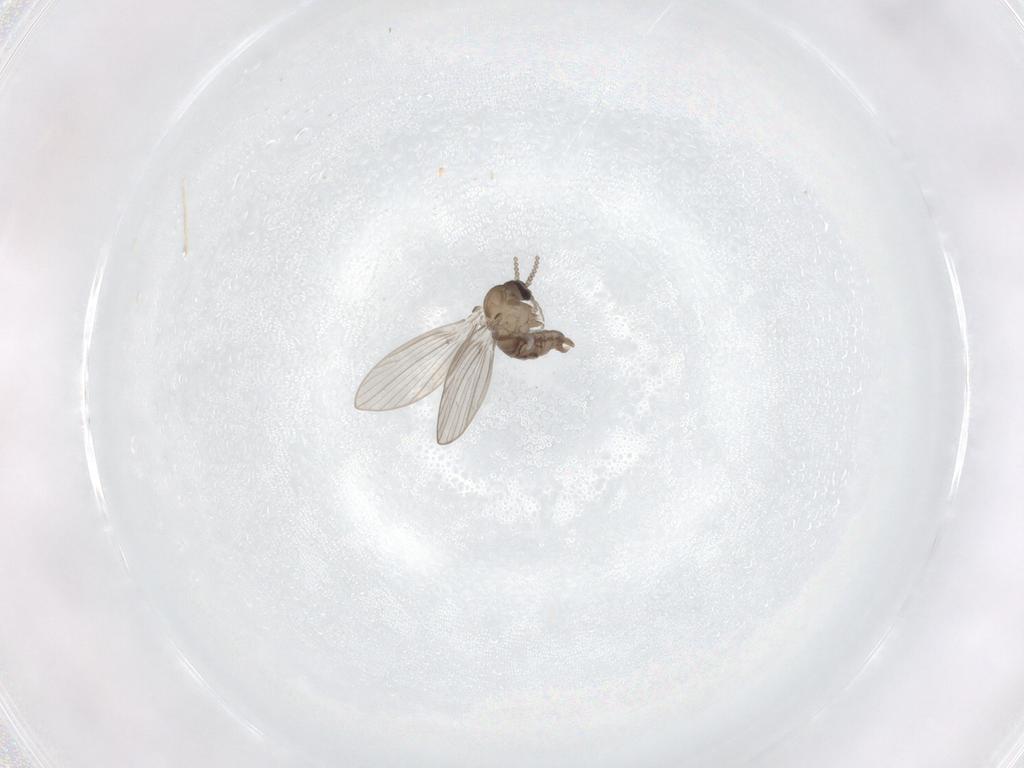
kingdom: Animalia
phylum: Arthropoda
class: Insecta
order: Diptera
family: Psychodidae
